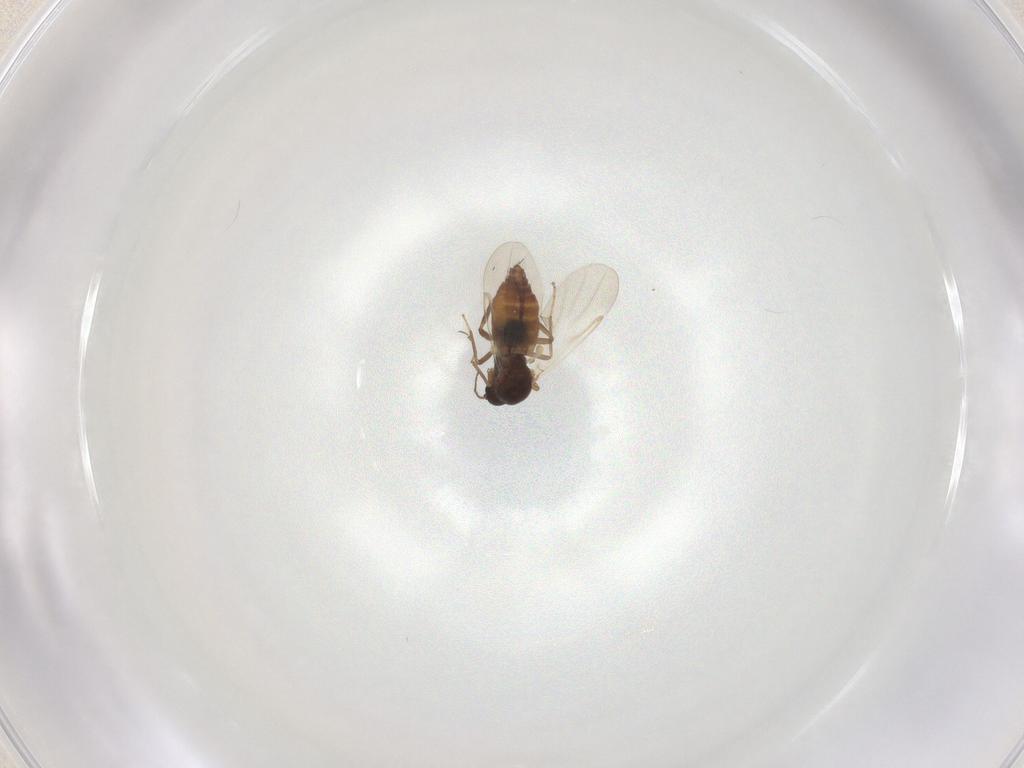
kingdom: Animalia
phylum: Arthropoda
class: Insecta
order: Diptera
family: Ceratopogonidae
